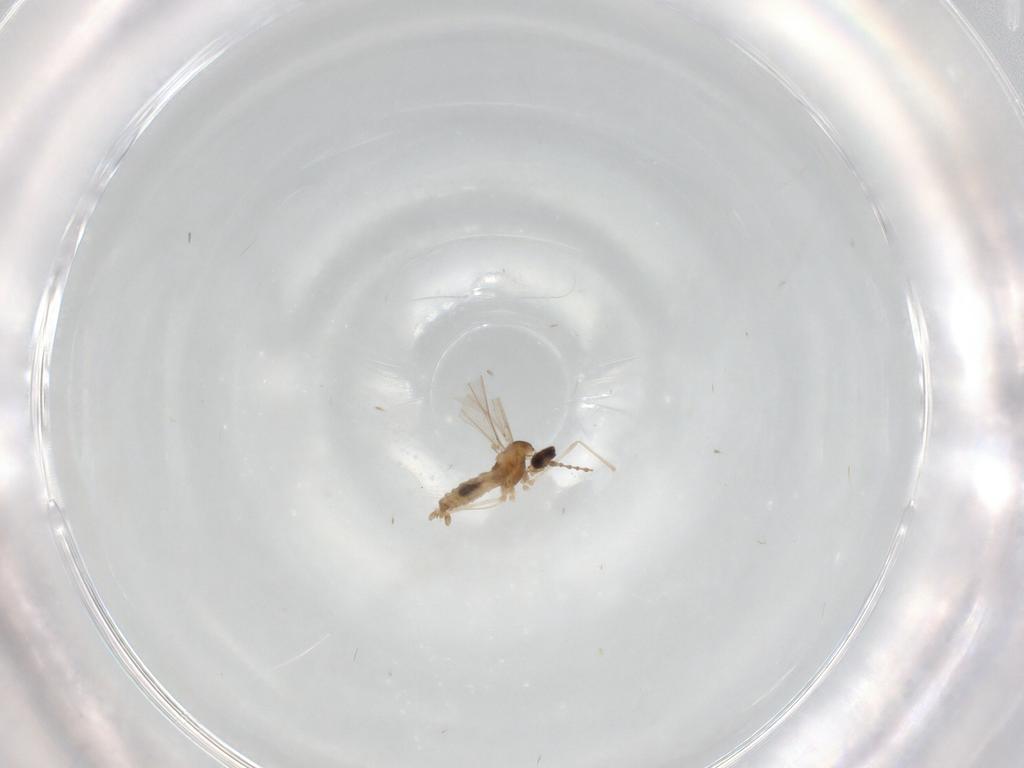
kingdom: Animalia
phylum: Arthropoda
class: Insecta
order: Diptera
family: Cecidomyiidae
